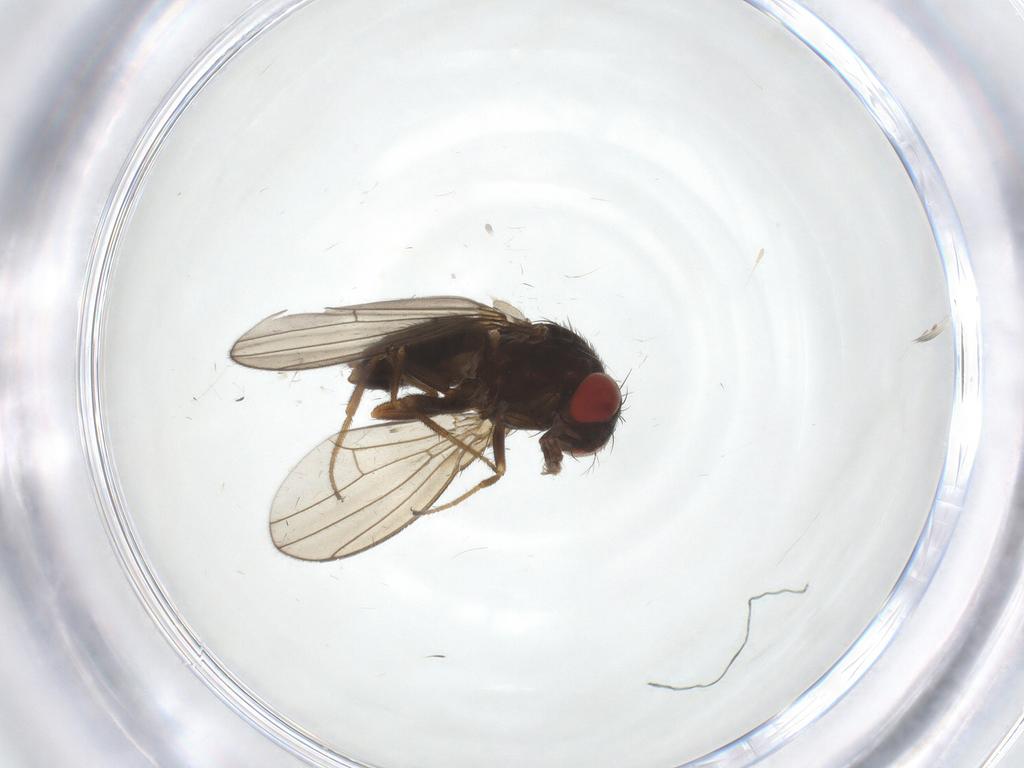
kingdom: Animalia
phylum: Arthropoda
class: Insecta
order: Diptera
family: Drosophilidae
